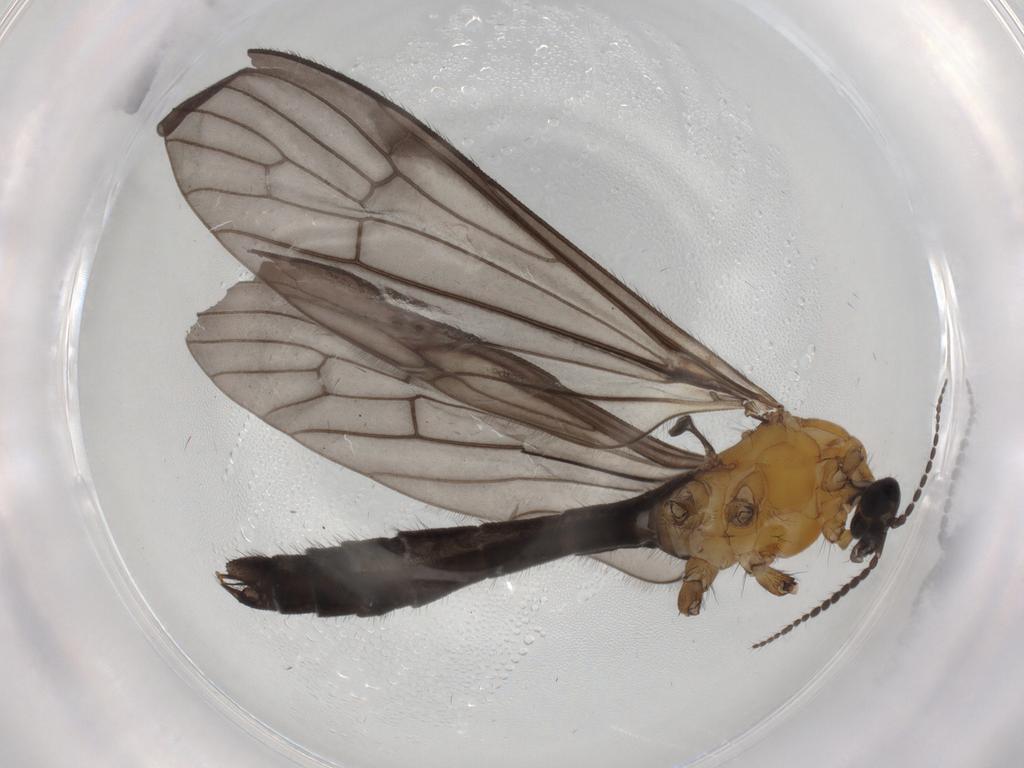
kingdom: Animalia
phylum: Arthropoda
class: Insecta
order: Diptera
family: Limoniidae
